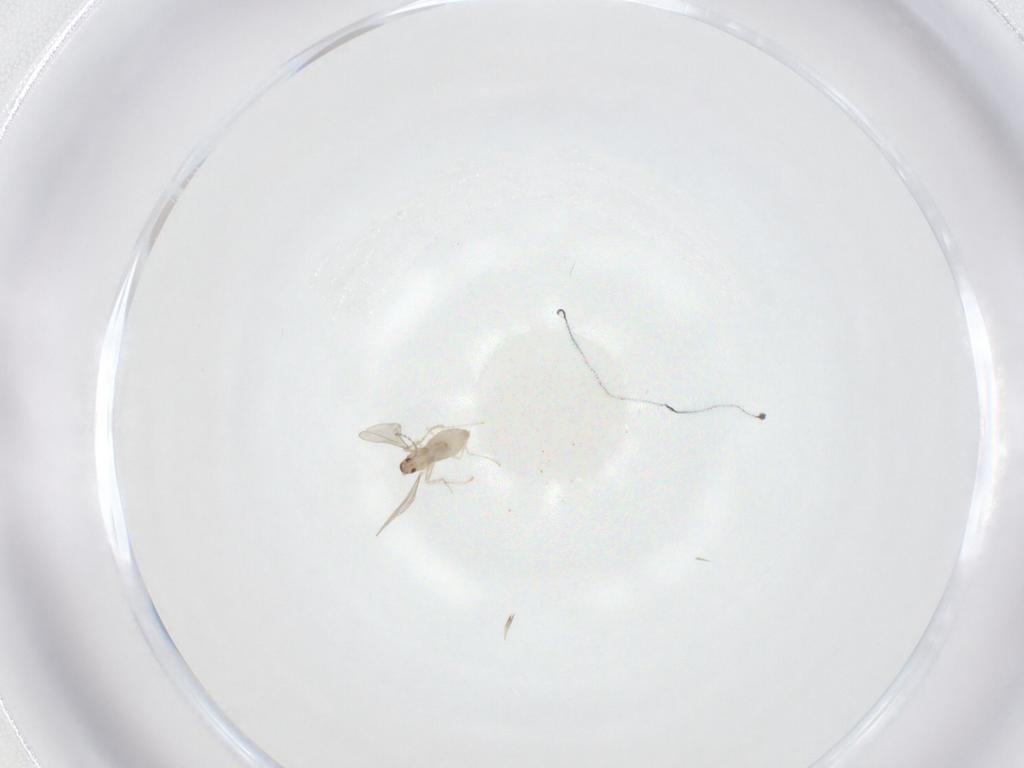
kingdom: Animalia
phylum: Arthropoda
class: Insecta
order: Diptera
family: Cecidomyiidae
